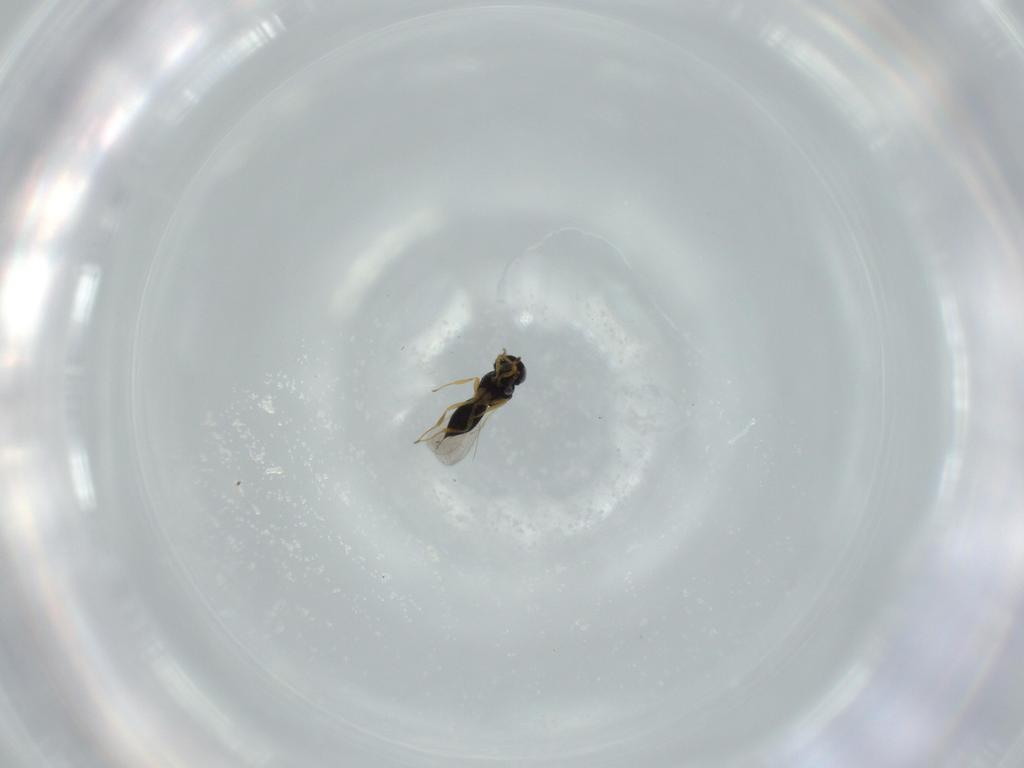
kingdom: Animalia
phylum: Arthropoda
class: Insecta
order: Hymenoptera
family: Scelionidae
